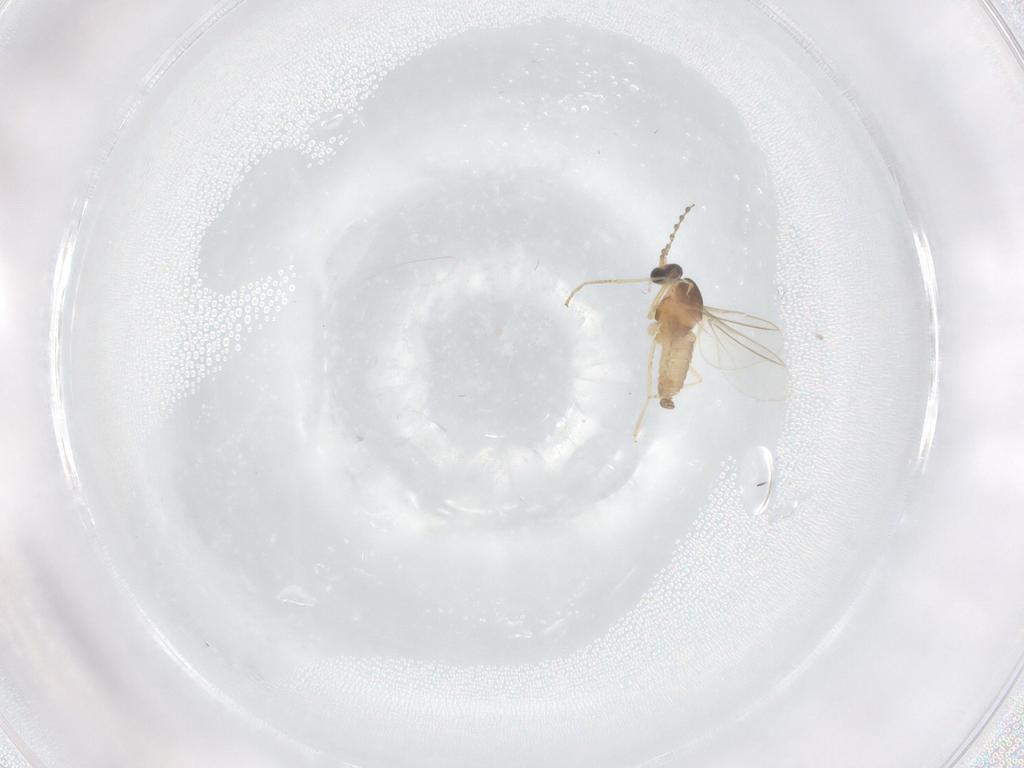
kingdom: Animalia
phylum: Arthropoda
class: Insecta
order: Diptera
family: Cecidomyiidae
